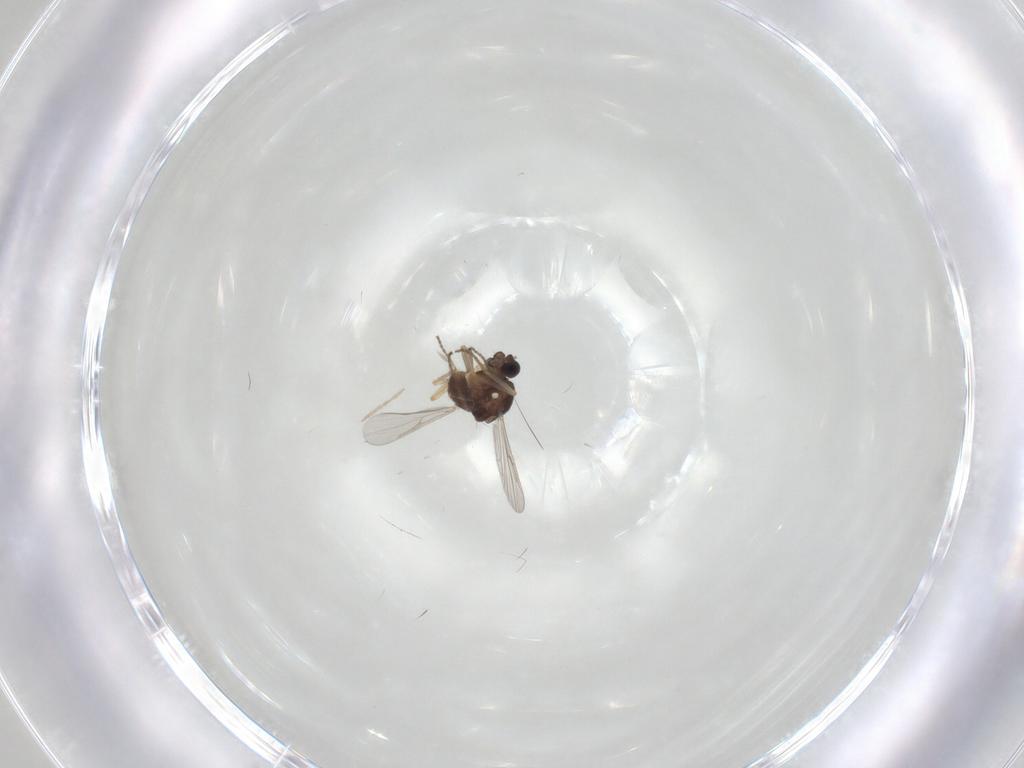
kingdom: Animalia
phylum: Arthropoda
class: Insecta
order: Diptera
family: Ceratopogonidae
